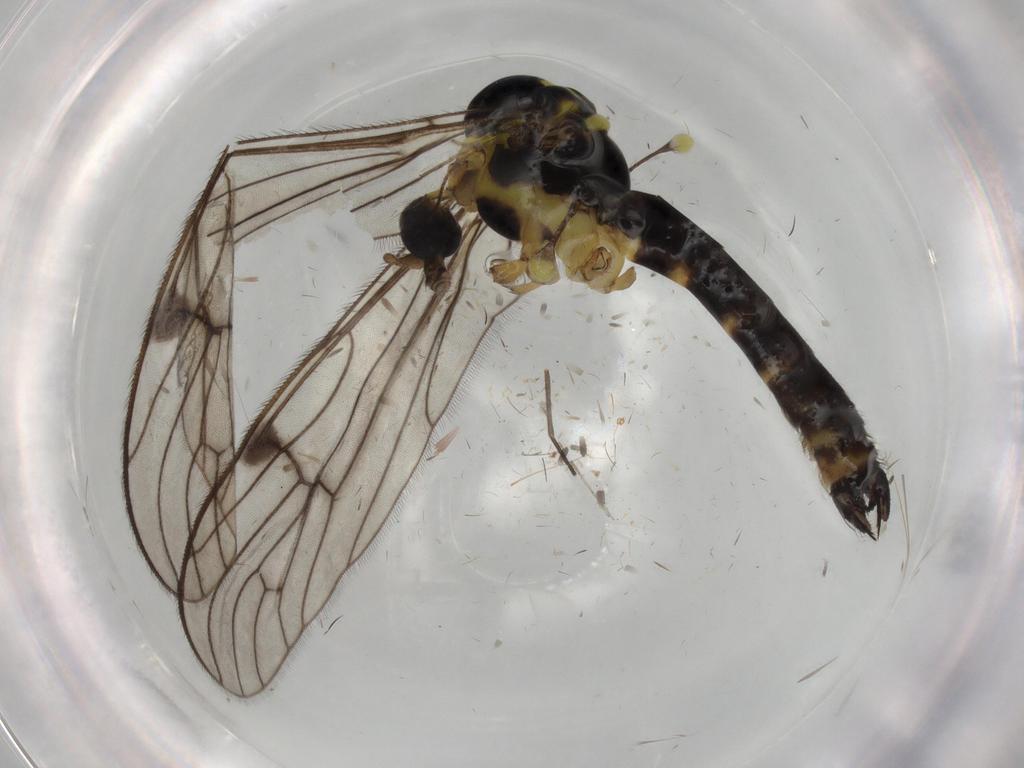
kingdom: Animalia
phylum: Arthropoda
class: Insecta
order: Diptera
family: Limoniidae
